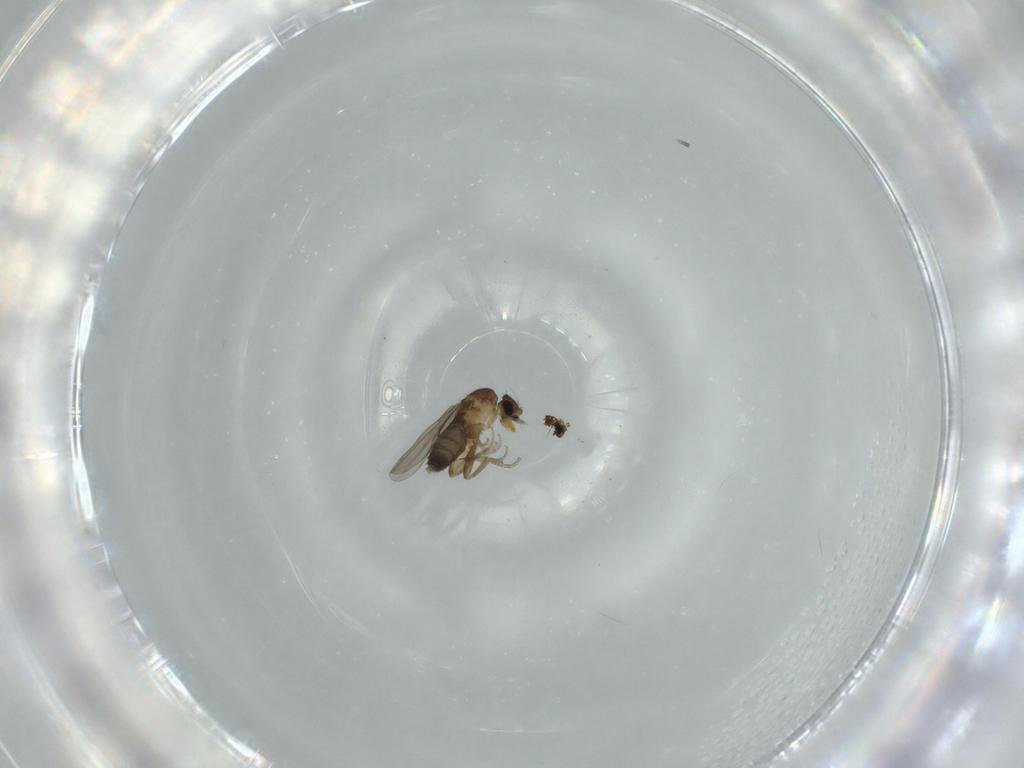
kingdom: Animalia
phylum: Arthropoda
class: Insecta
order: Diptera
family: Phoridae
